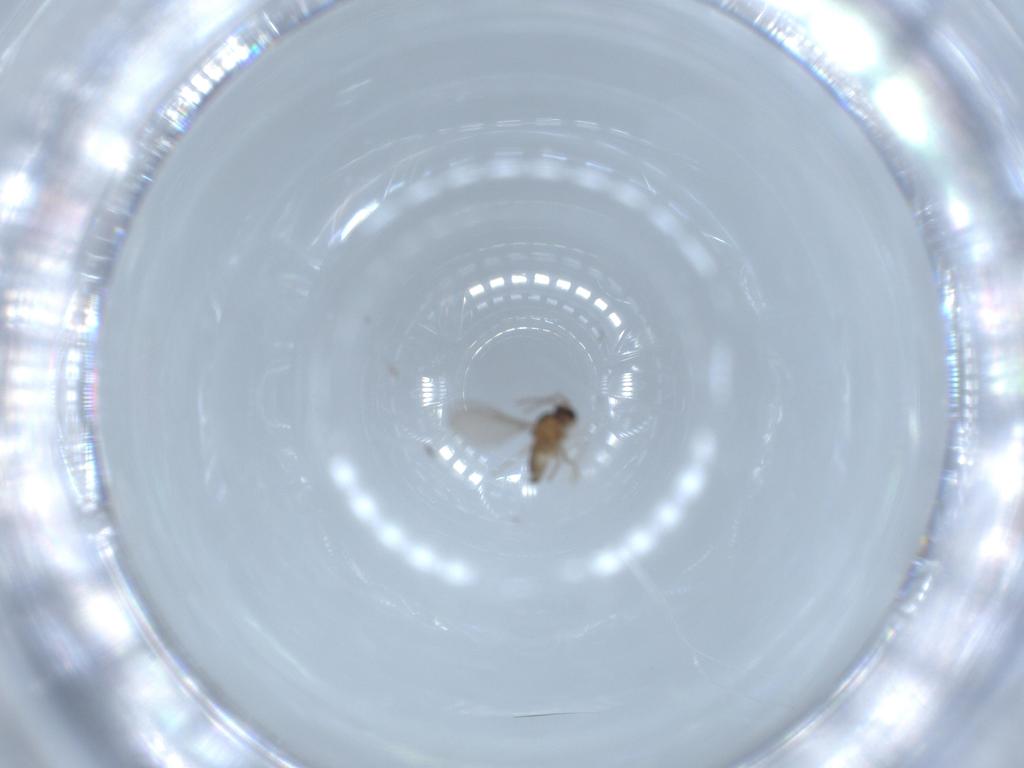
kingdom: Animalia
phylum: Arthropoda
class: Insecta
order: Diptera
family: Cecidomyiidae
